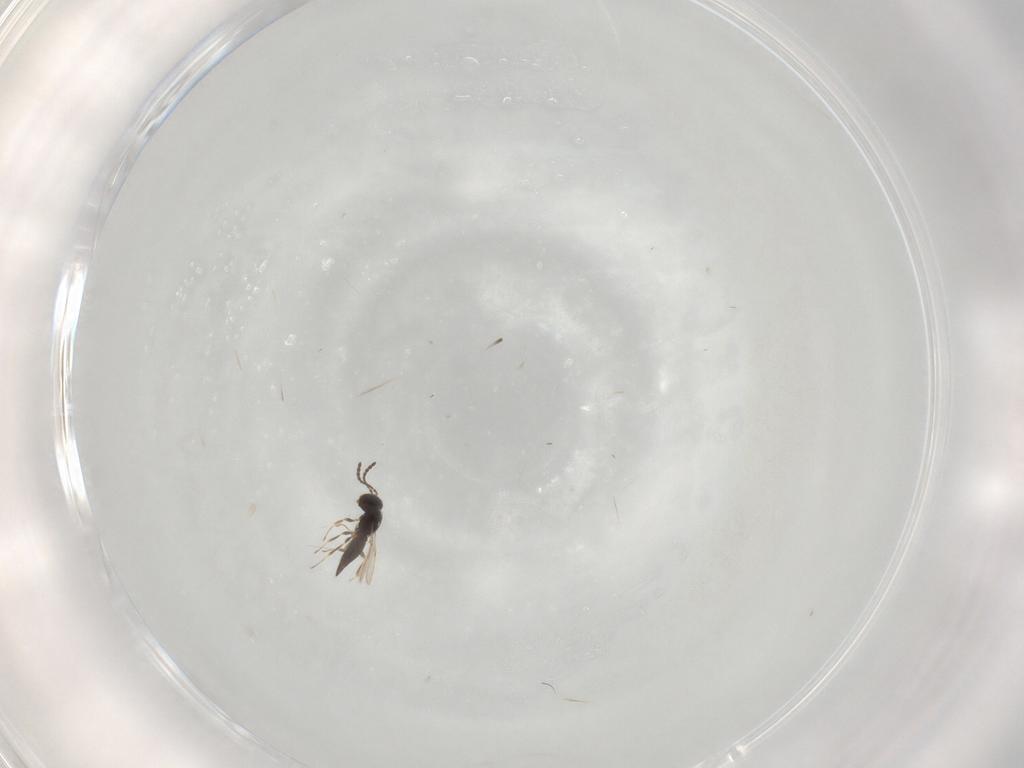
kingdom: Animalia
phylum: Arthropoda
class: Insecta
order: Hymenoptera
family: Scelionidae
